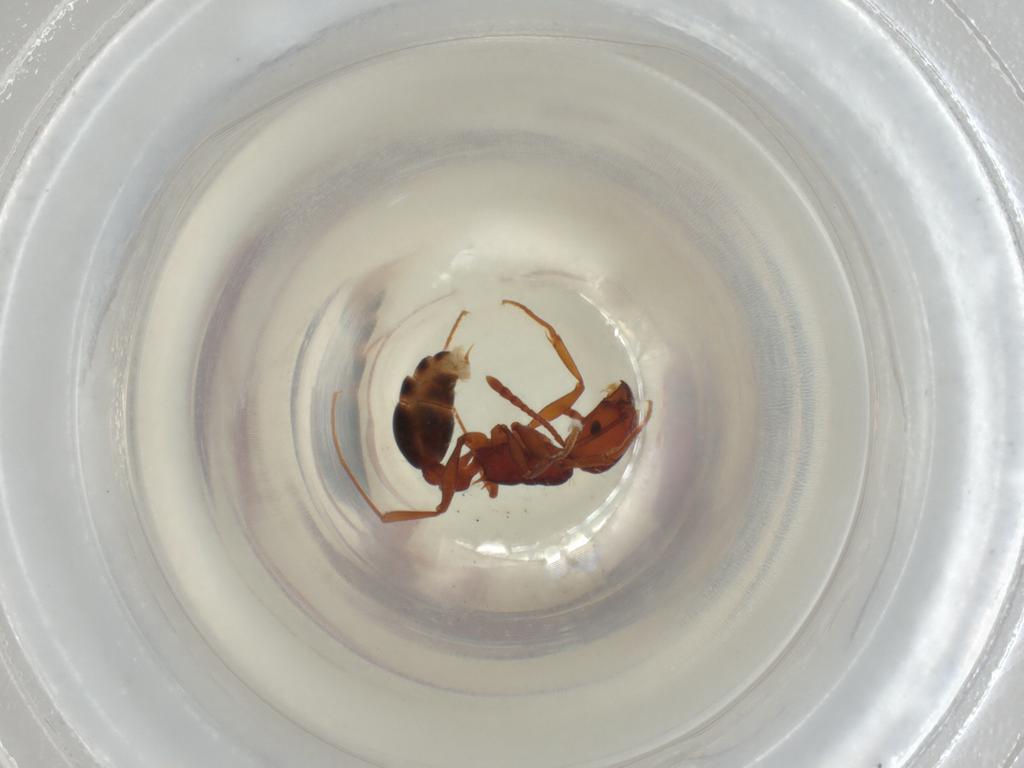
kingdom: Animalia
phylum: Arthropoda
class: Insecta
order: Hymenoptera
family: Formicidae
